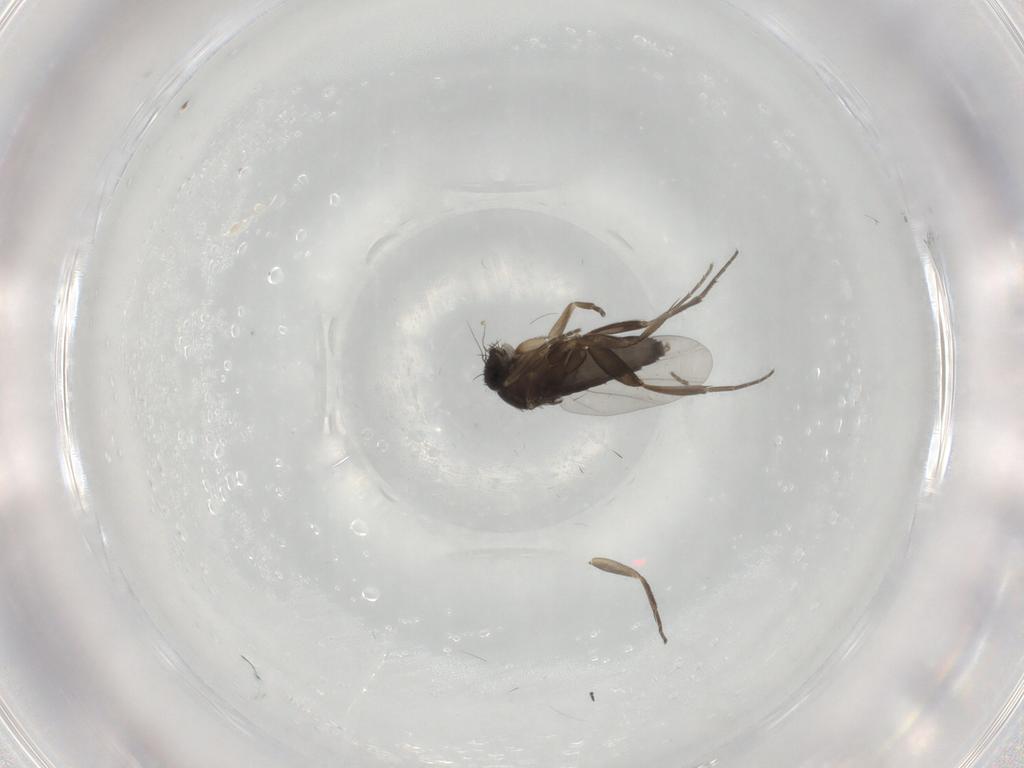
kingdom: Animalia
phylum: Arthropoda
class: Insecta
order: Diptera
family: Phoridae
